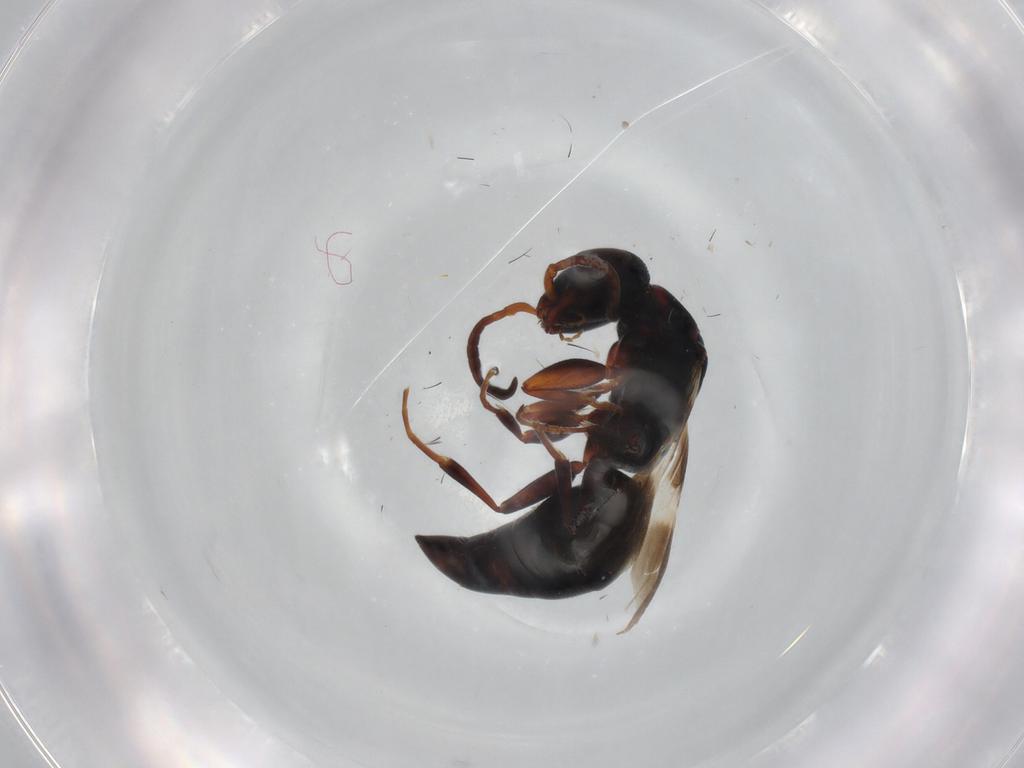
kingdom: Animalia
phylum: Arthropoda
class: Insecta
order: Hymenoptera
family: Bethylidae
